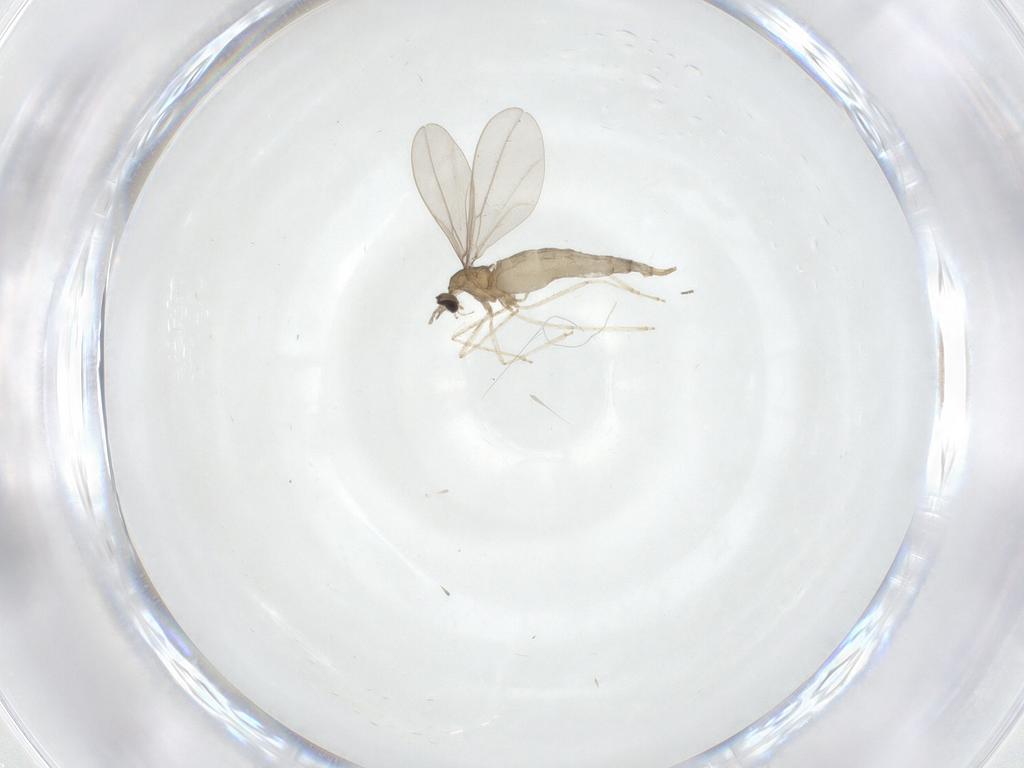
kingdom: Animalia
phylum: Arthropoda
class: Insecta
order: Diptera
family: Cecidomyiidae
